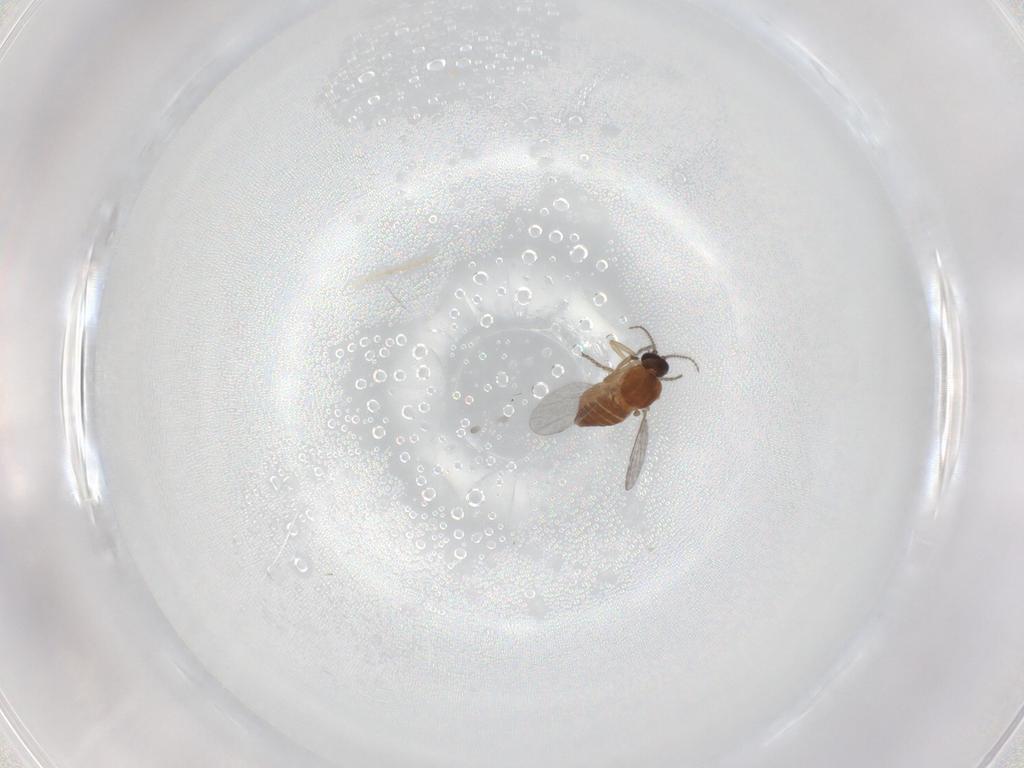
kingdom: Animalia
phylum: Arthropoda
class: Insecta
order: Diptera
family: Ceratopogonidae
